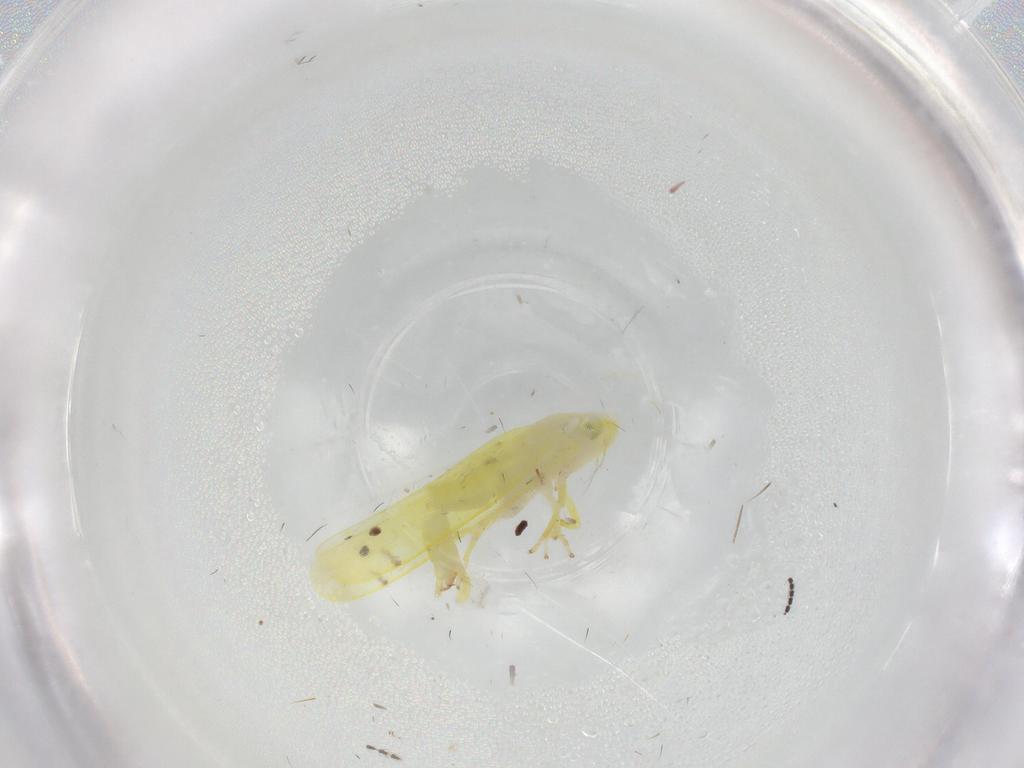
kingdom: Animalia
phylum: Arthropoda
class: Insecta
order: Hemiptera
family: Cicadellidae
